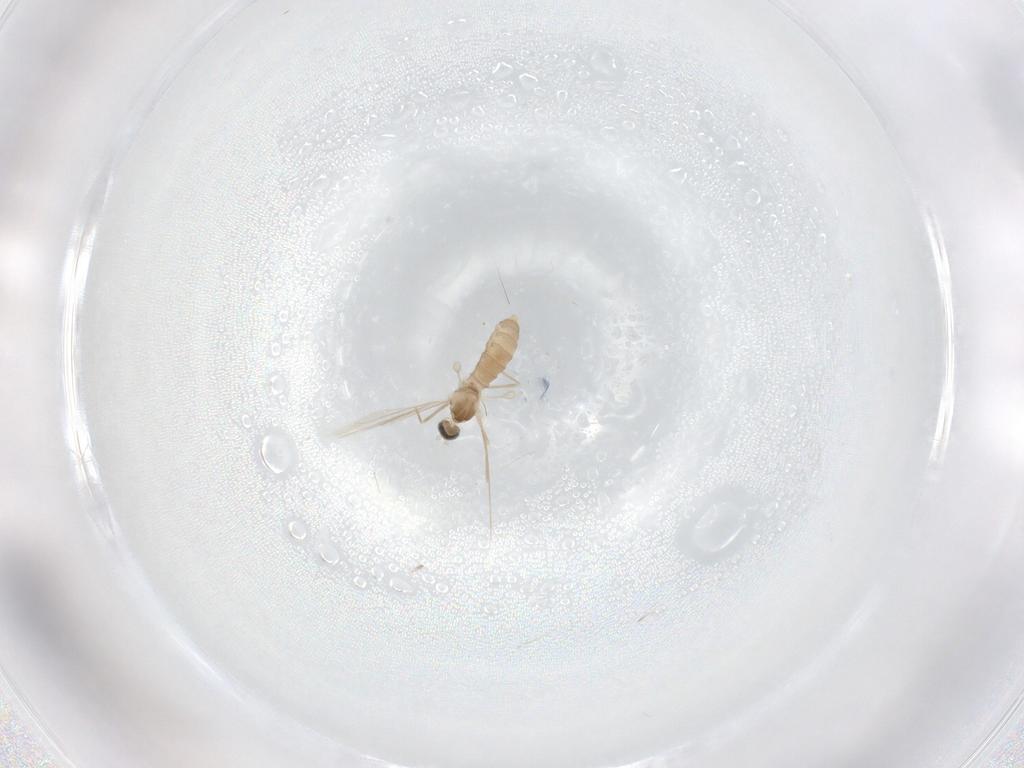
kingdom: Animalia
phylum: Arthropoda
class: Insecta
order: Diptera
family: Cecidomyiidae
